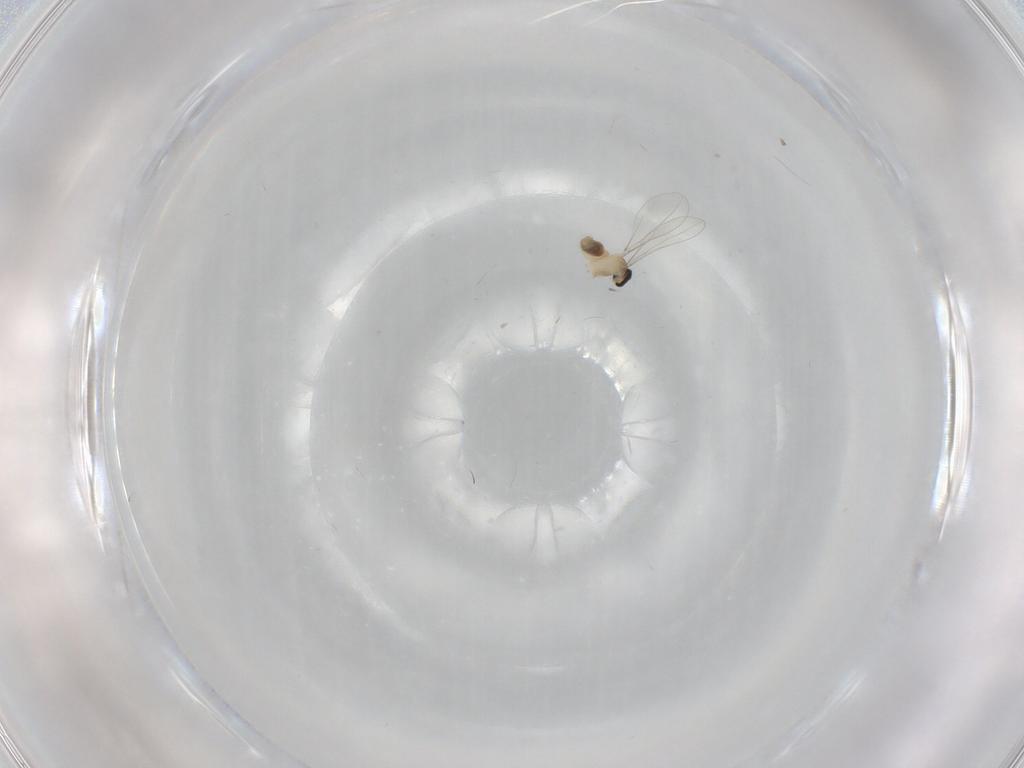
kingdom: Animalia
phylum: Arthropoda
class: Insecta
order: Diptera
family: Cecidomyiidae
